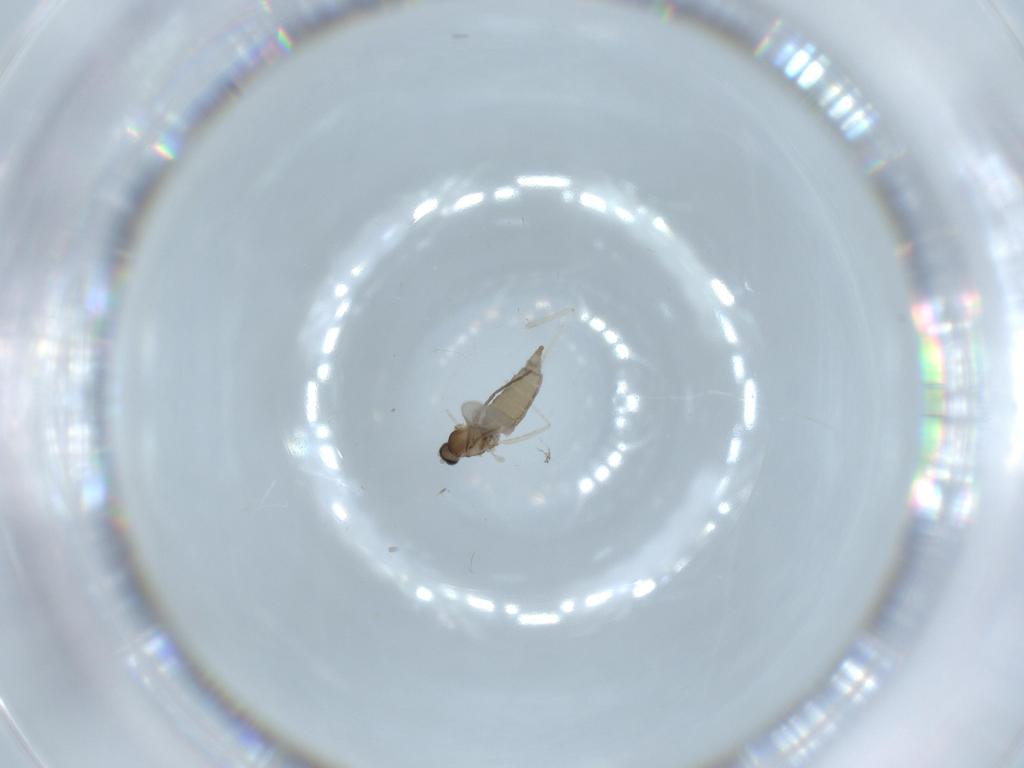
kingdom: Animalia
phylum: Arthropoda
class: Insecta
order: Diptera
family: Chironomidae
